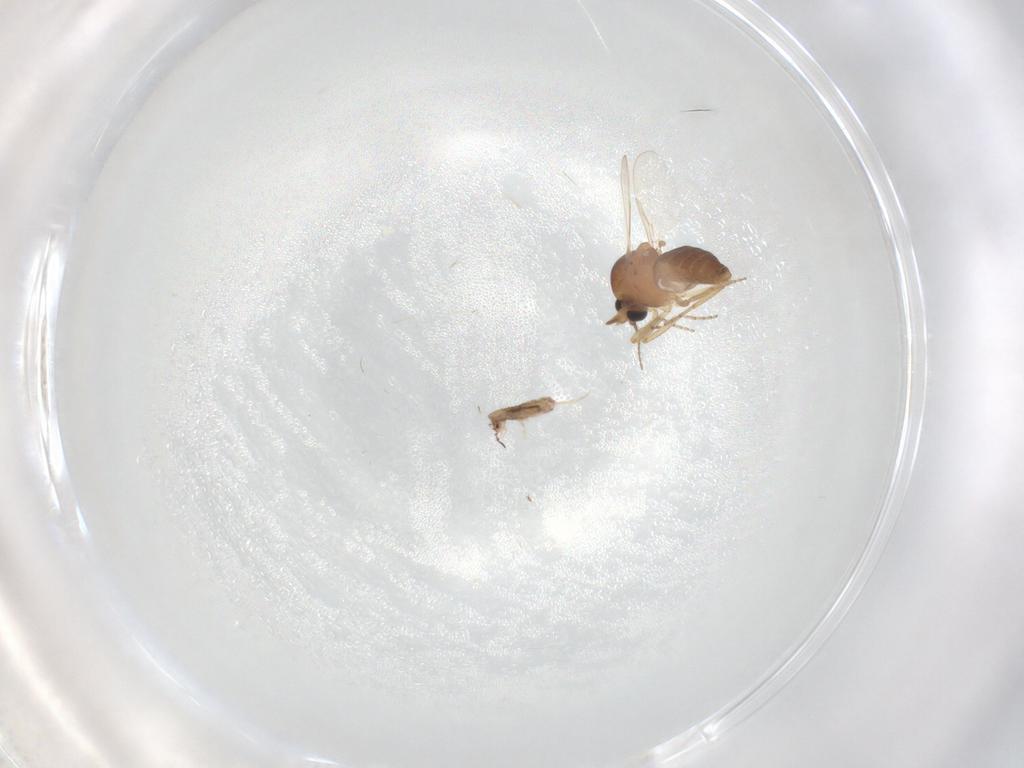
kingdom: Animalia
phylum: Arthropoda
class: Insecta
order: Diptera
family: Ceratopogonidae
